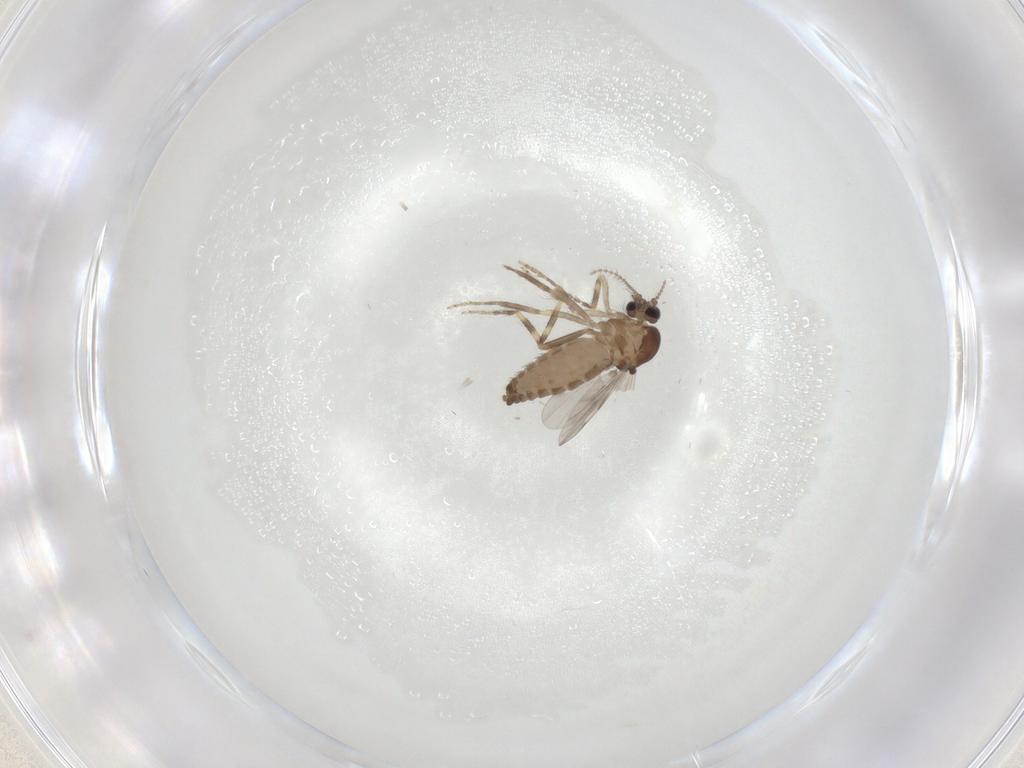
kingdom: Animalia
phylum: Arthropoda
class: Insecta
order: Diptera
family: Ceratopogonidae
